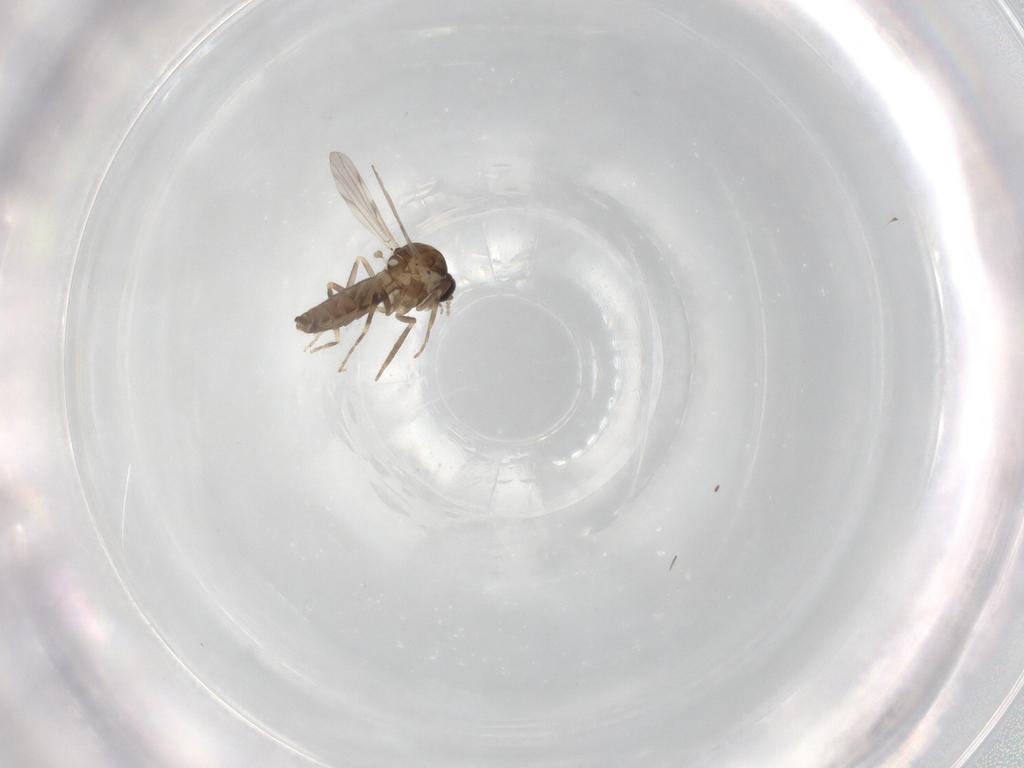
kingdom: Animalia
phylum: Arthropoda
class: Insecta
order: Diptera
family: Ceratopogonidae
